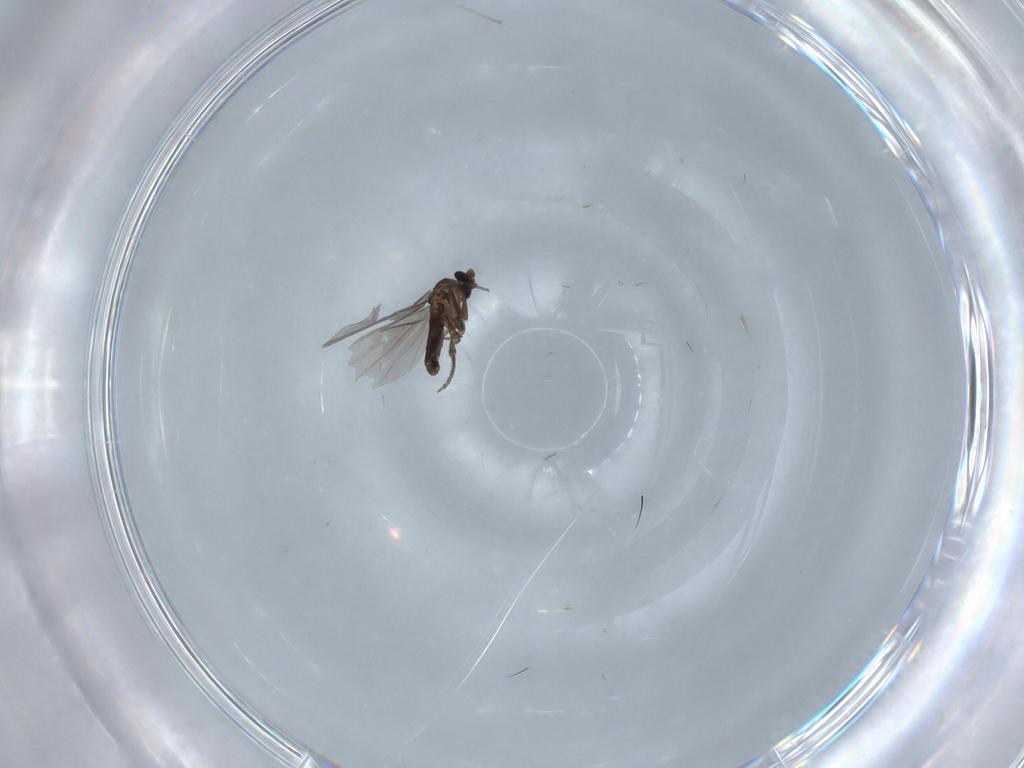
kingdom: Animalia
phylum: Arthropoda
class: Insecta
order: Diptera
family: Phoridae
